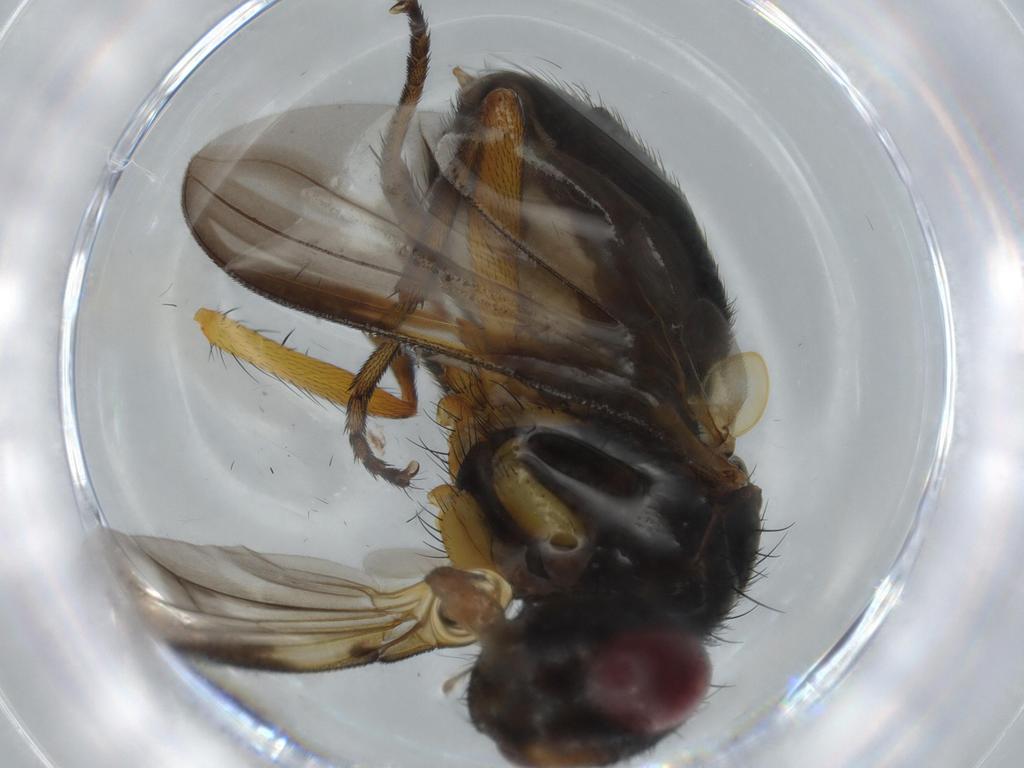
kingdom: Animalia
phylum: Arthropoda
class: Insecta
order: Diptera
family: Calliphoridae
